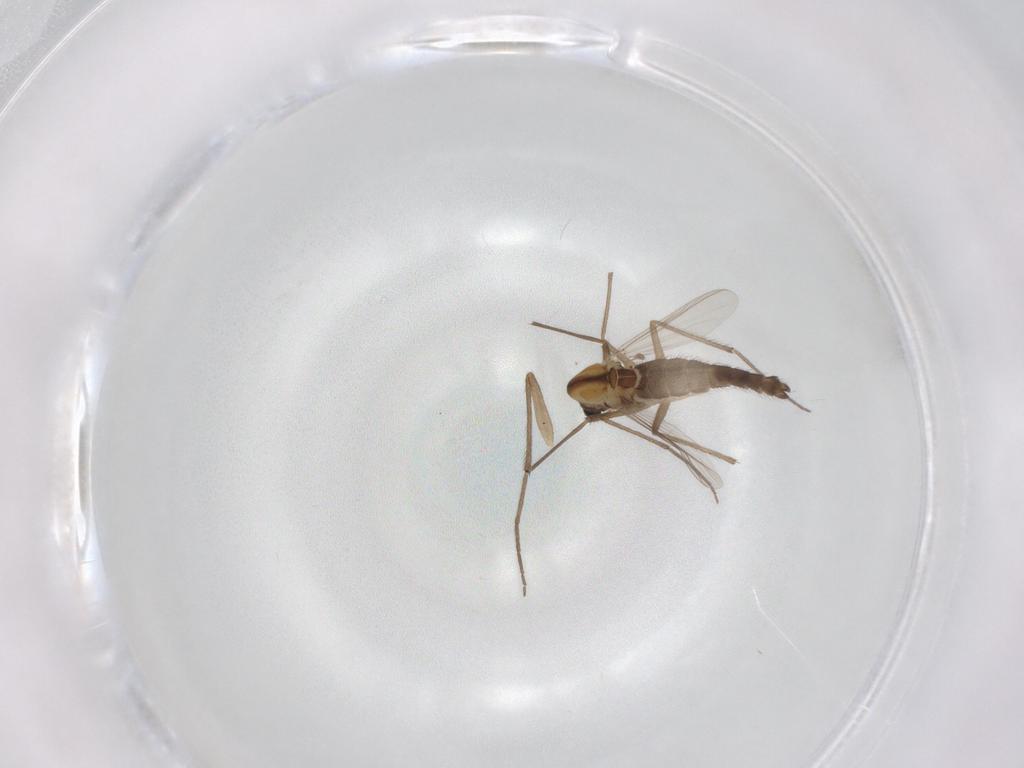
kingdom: Animalia
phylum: Arthropoda
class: Insecta
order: Diptera
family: Chironomidae
